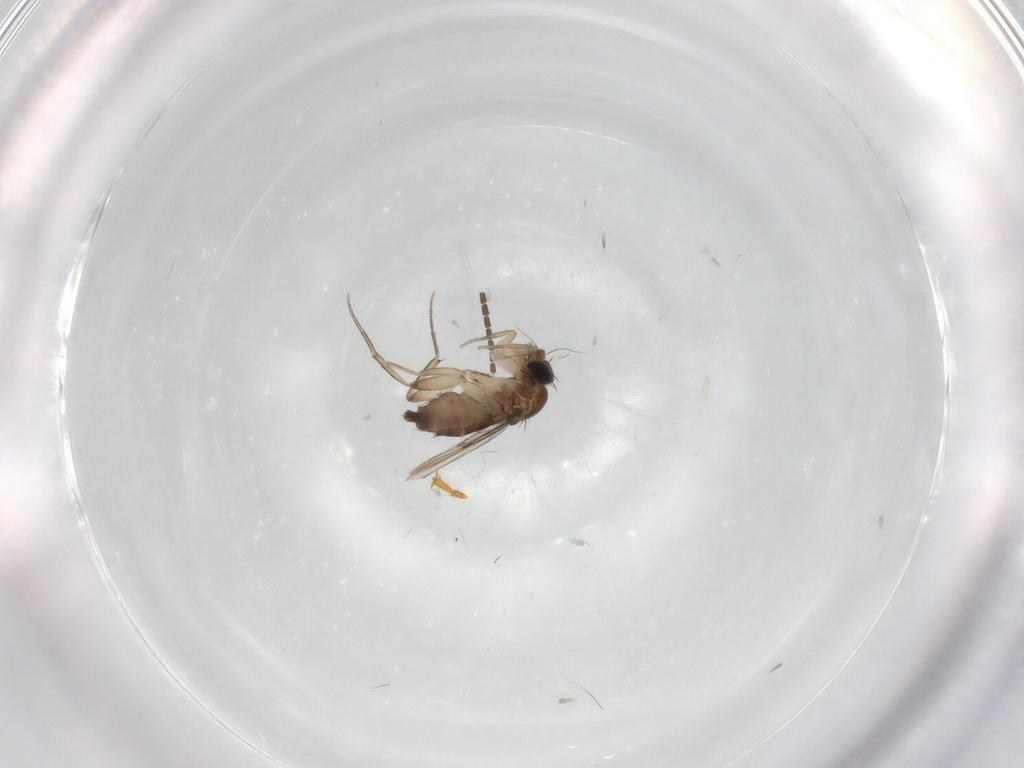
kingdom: Animalia
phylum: Arthropoda
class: Insecta
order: Diptera
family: Phoridae
